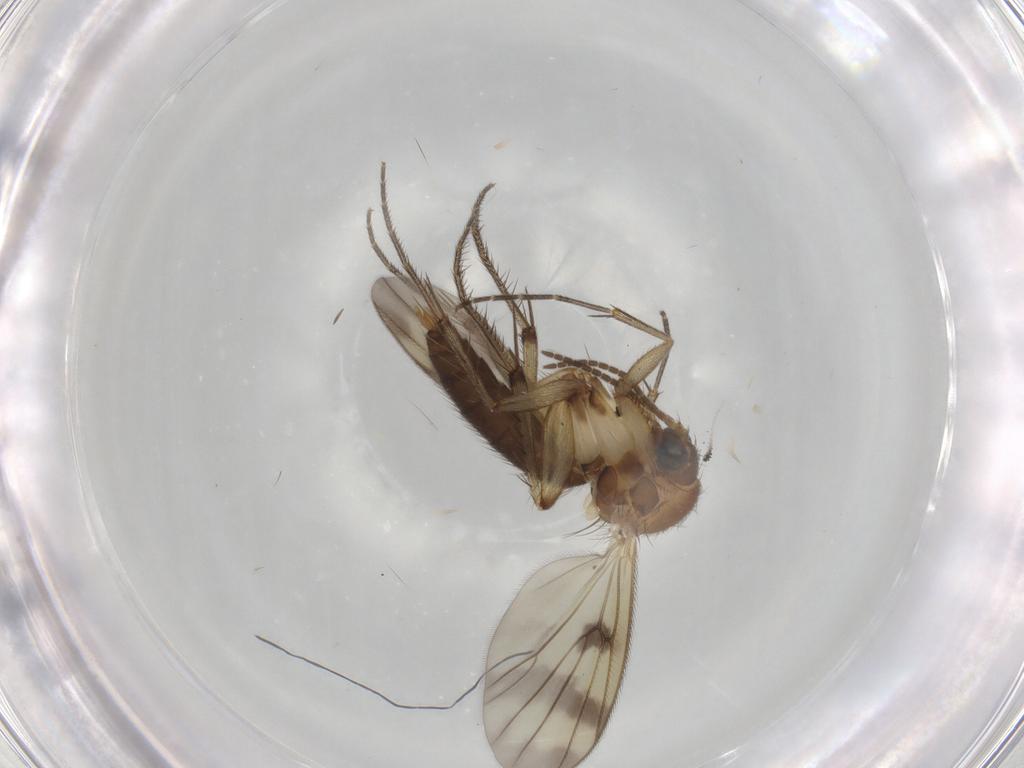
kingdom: Animalia
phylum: Arthropoda
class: Insecta
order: Diptera
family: Mycetophilidae
